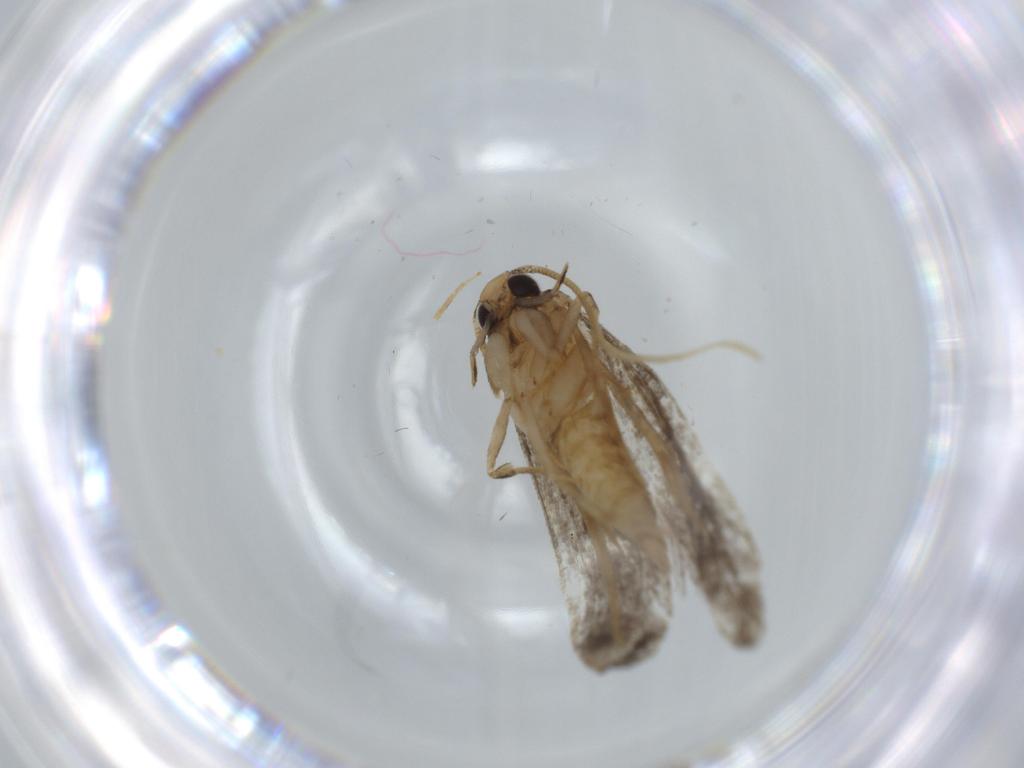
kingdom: Animalia
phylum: Arthropoda
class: Insecta
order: Lepidoptera
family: Tineidae
